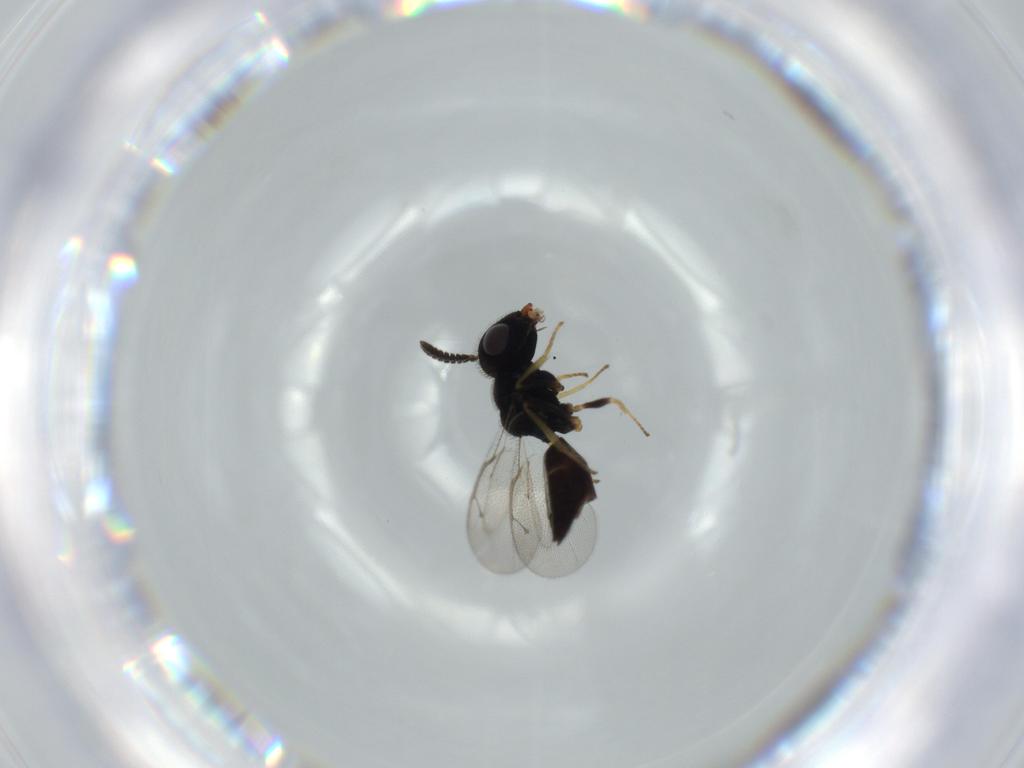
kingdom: Animalia
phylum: Arthropoda
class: Insecta
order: Hymenoptera
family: Pteromalidae
